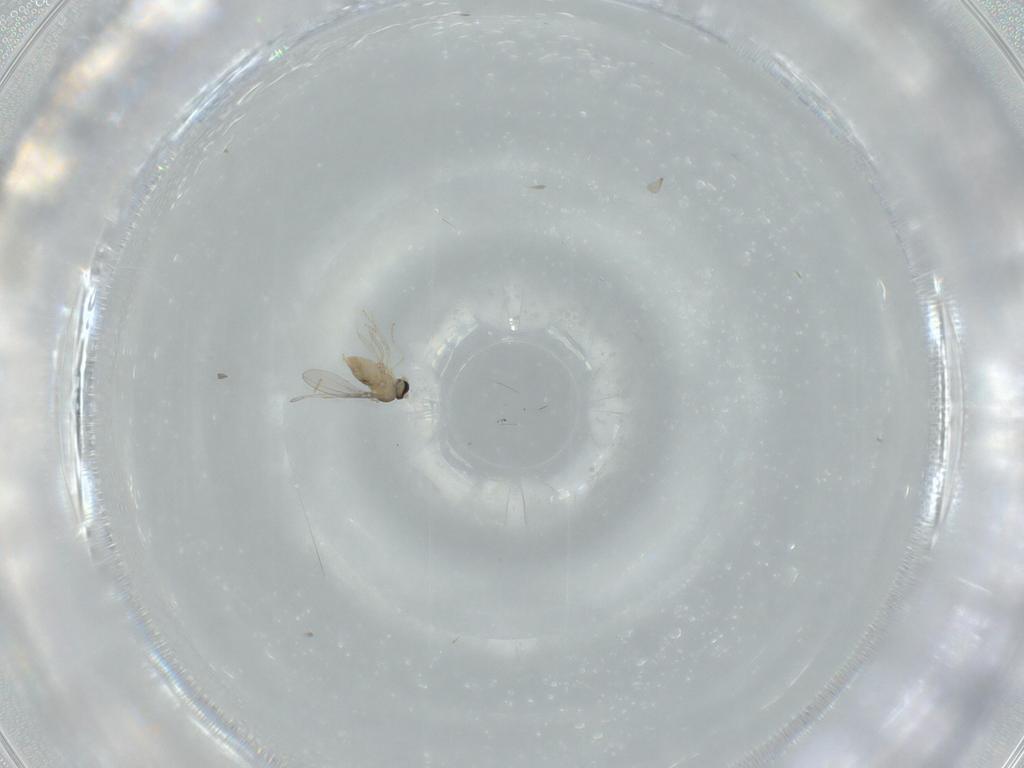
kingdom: Animalia
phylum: Arthropoda
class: Insecta
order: Diptera
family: Cecidomyiidae
